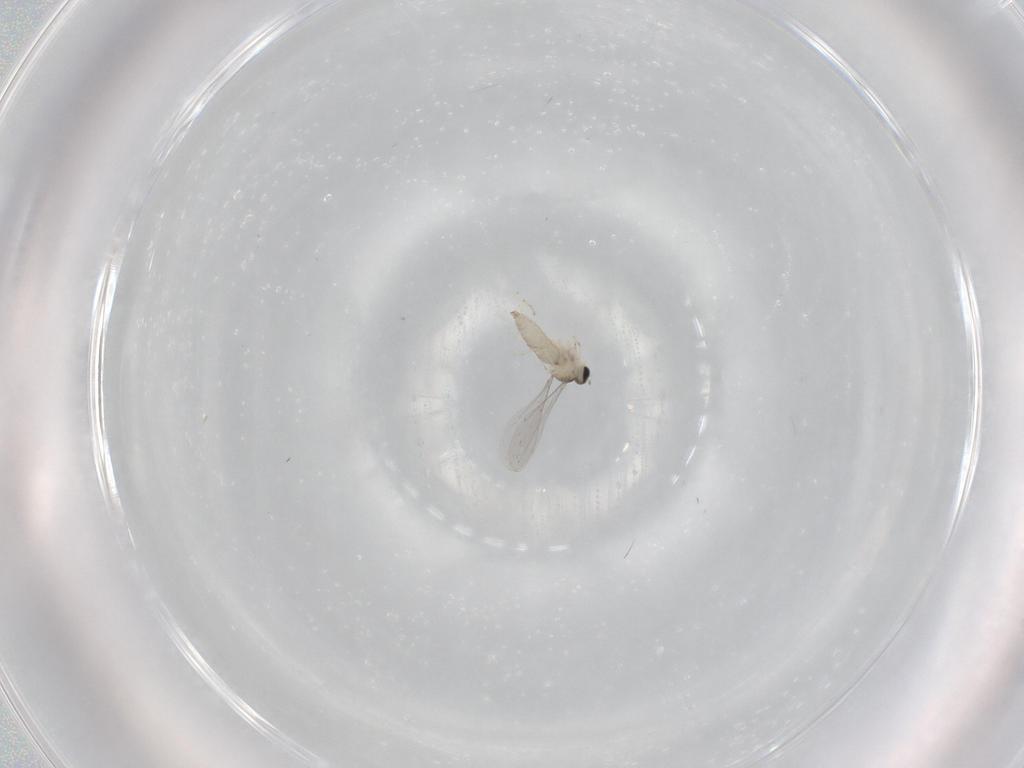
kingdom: Animalia
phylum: Arthropoda
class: Insecta
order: Diptera
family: Cecidomyiidae
